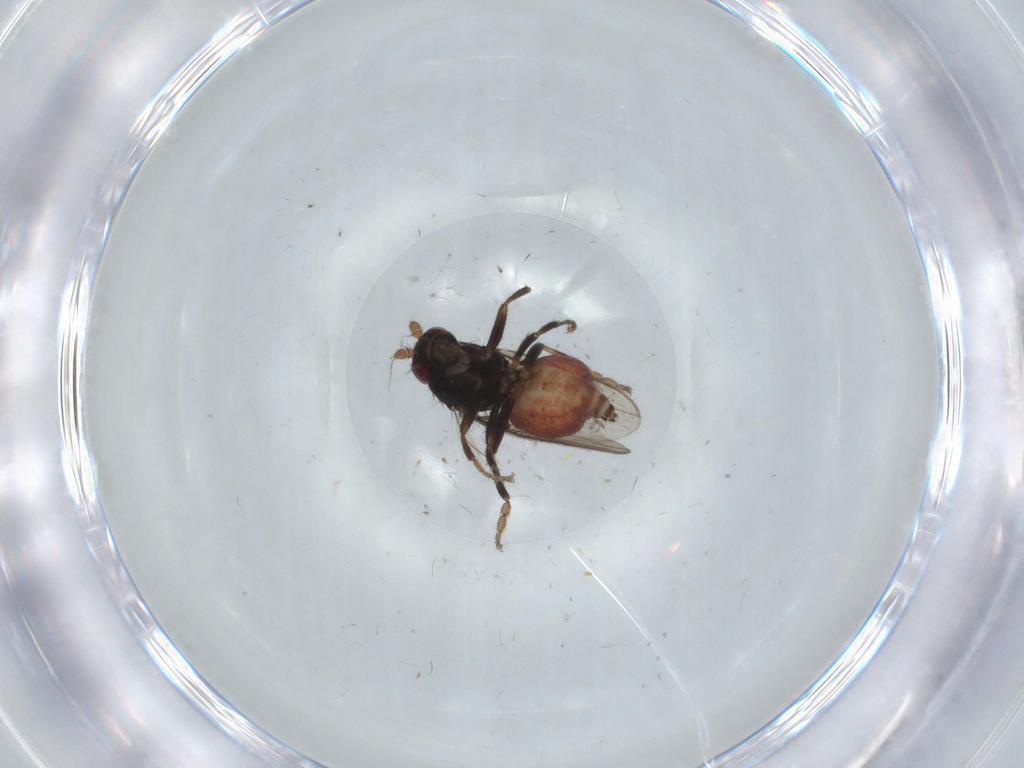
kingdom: Animalia
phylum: Arthropoda
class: Insecta
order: Diptera
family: Sphaeroceridae
